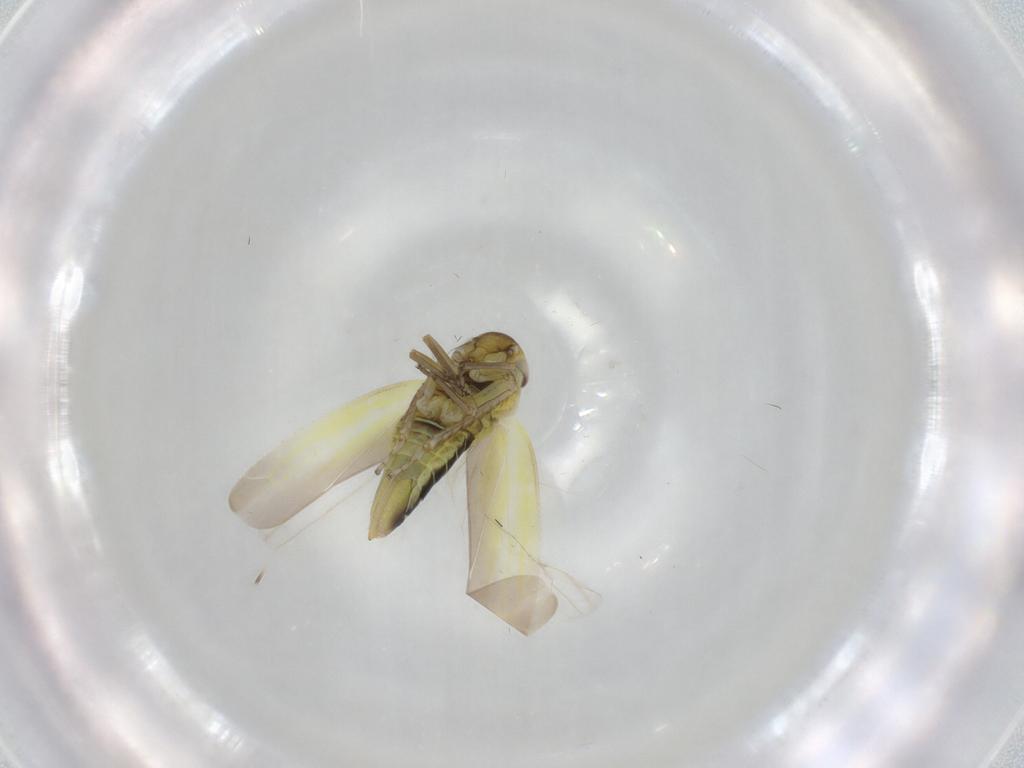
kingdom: Animalia
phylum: Arthropoda
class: Insecta
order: Hemiptera
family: Cicadellidae
